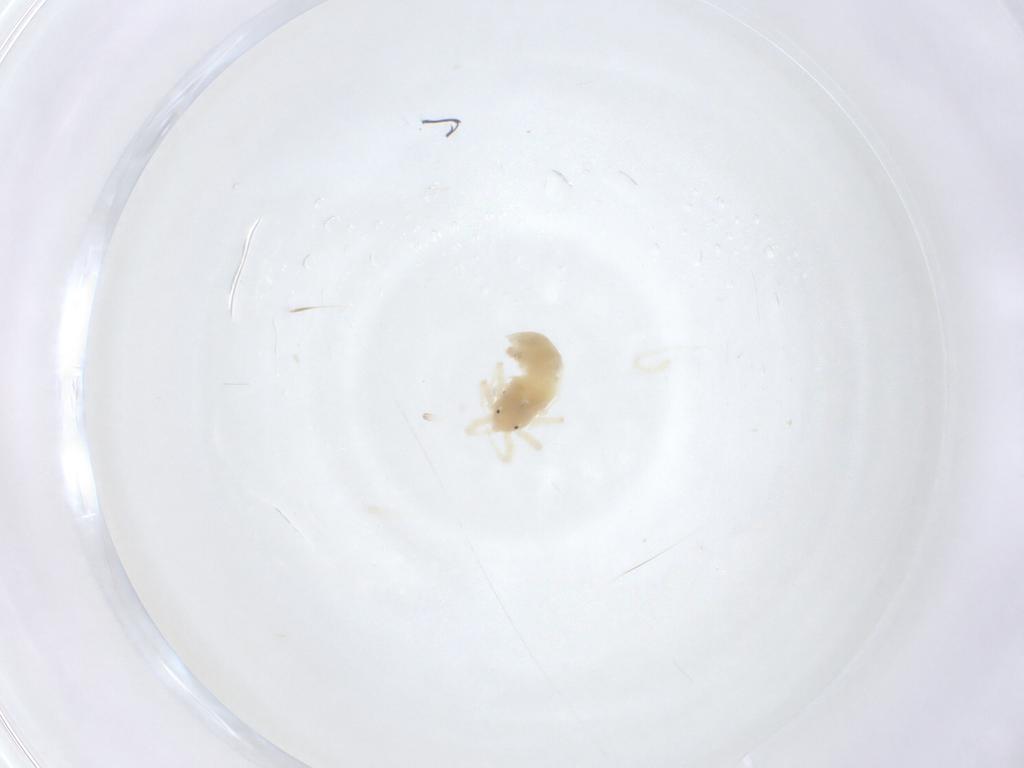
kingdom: Animalia
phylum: Arthropoda
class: Arachnida
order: Trombidiformes
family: Anystidae
